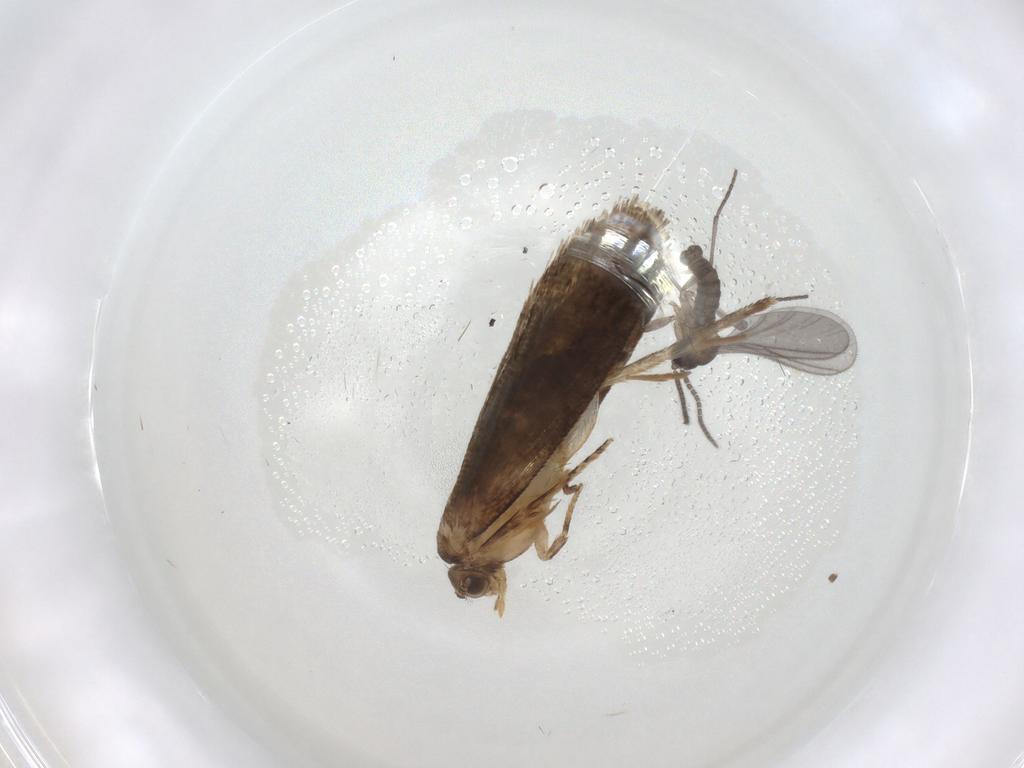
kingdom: Animalia
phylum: Arthropoda
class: Insecta
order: Lepidoptera
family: Crambidae
